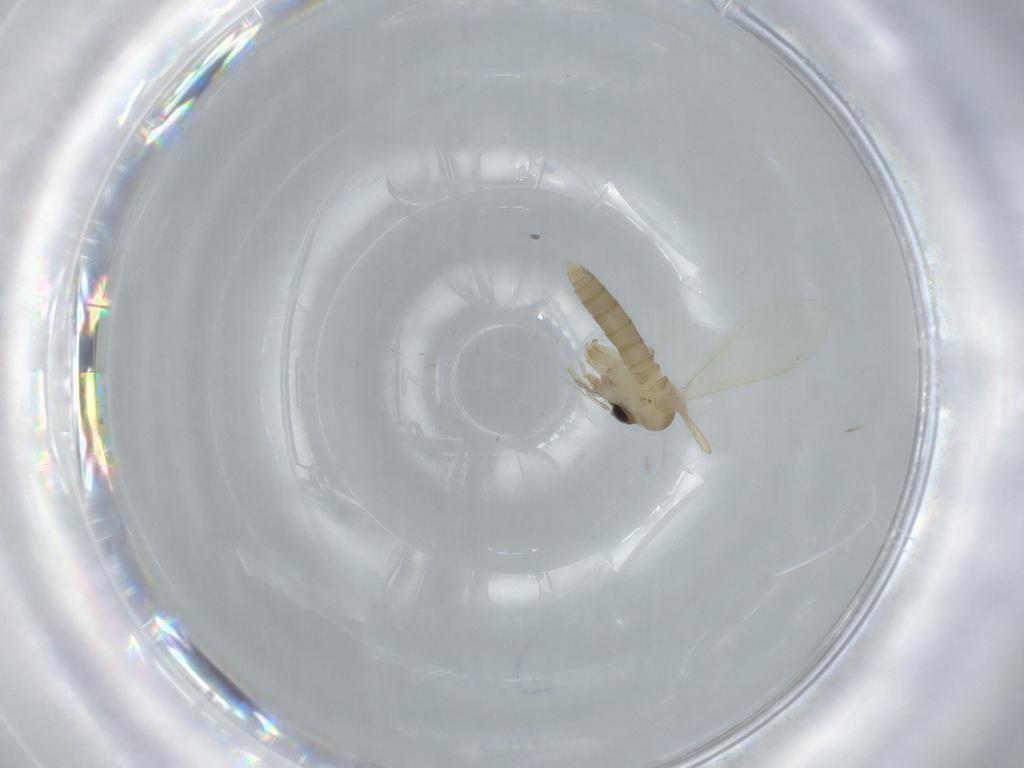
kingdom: Animalia
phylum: Arthropoda
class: Insecta
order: Diptera
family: Psychodidae
